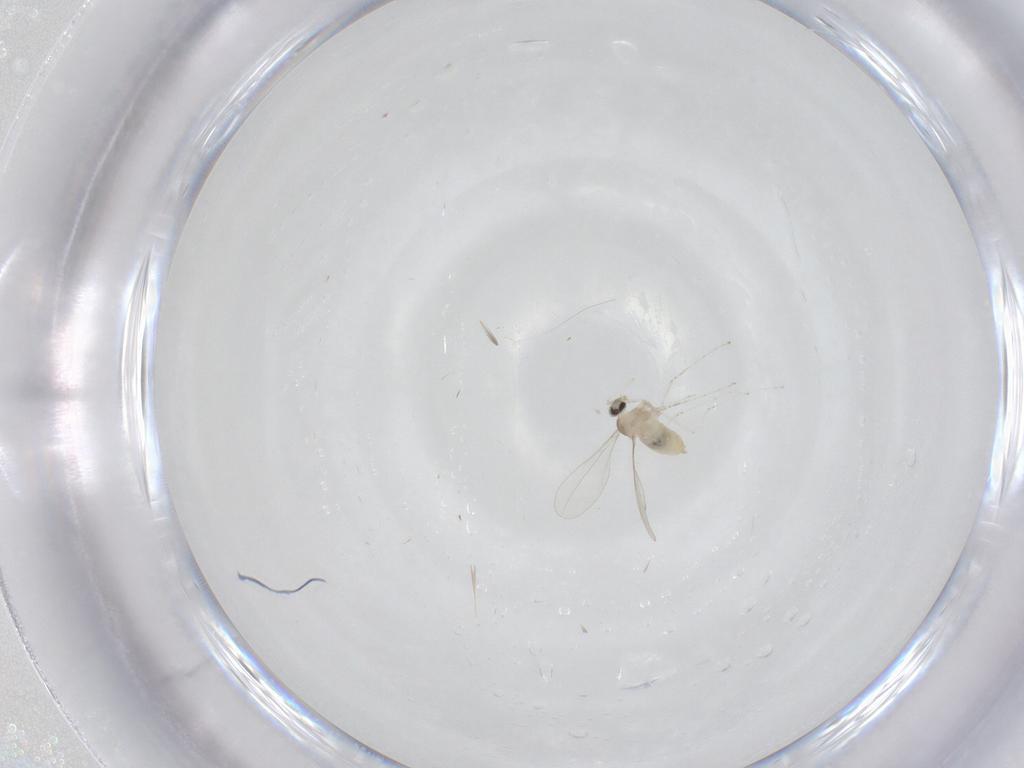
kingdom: Animalia
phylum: Arthropoda
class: Insecta
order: Diptera
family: Cecidomyiidae
